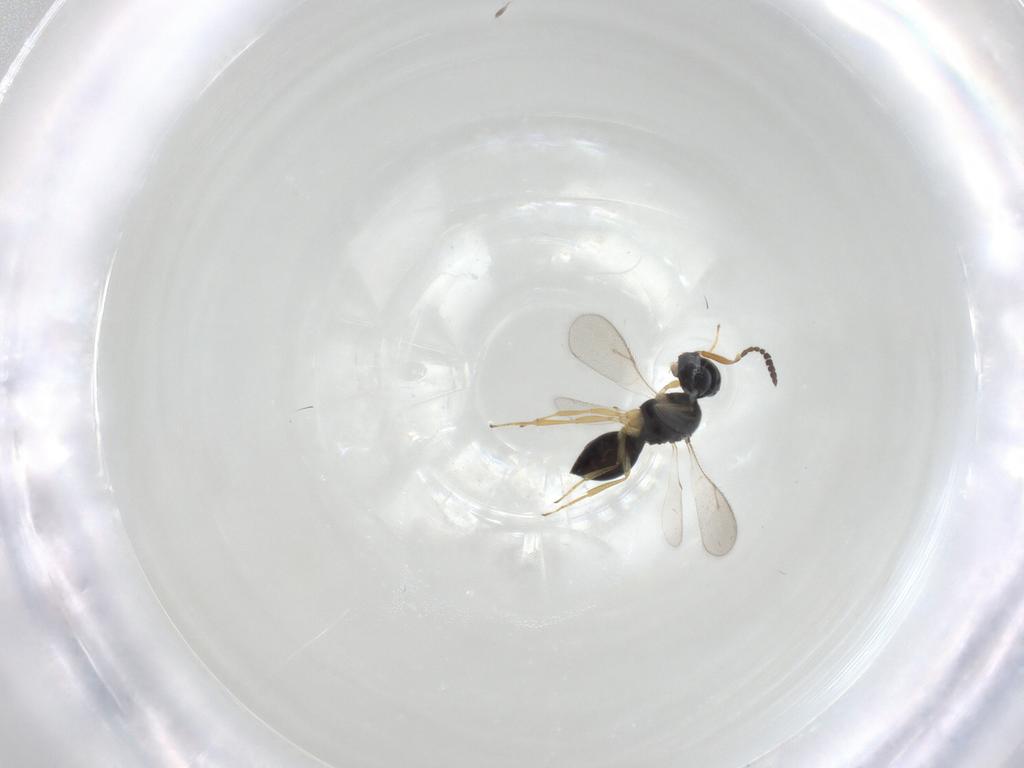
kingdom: Animalia
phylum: Arthropoda
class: Insecta
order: Hymenoptera
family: Scelionidae
